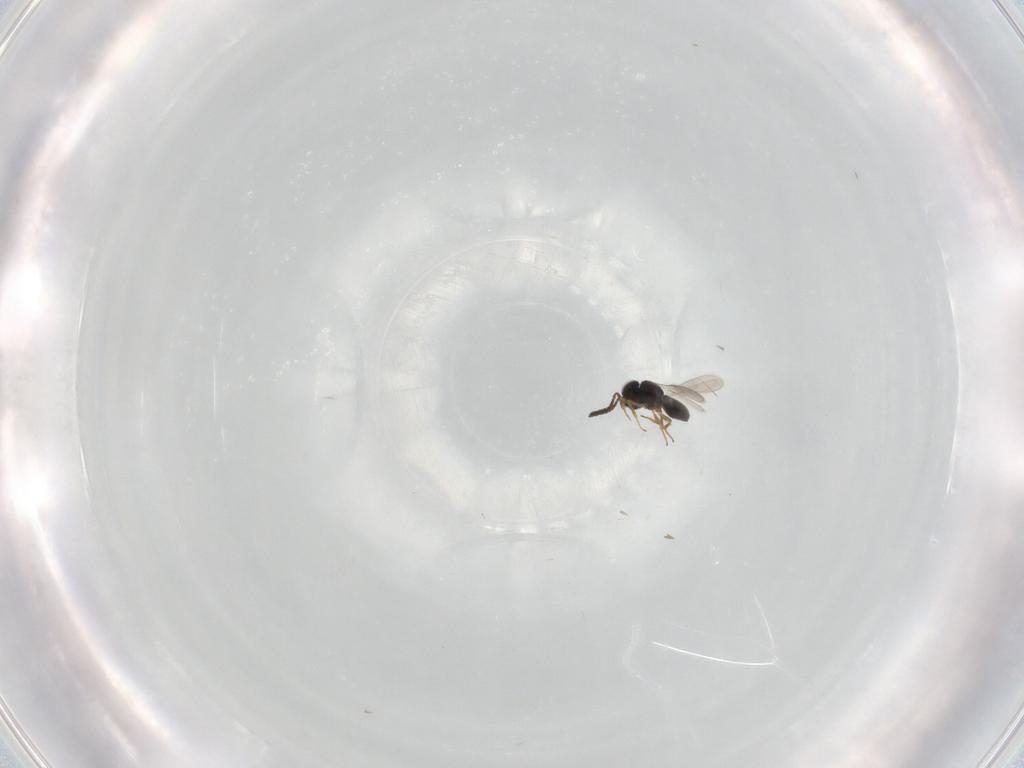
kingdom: Animalia
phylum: Arthropoda
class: Insecta
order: Hymenoptera
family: Scelionidae
